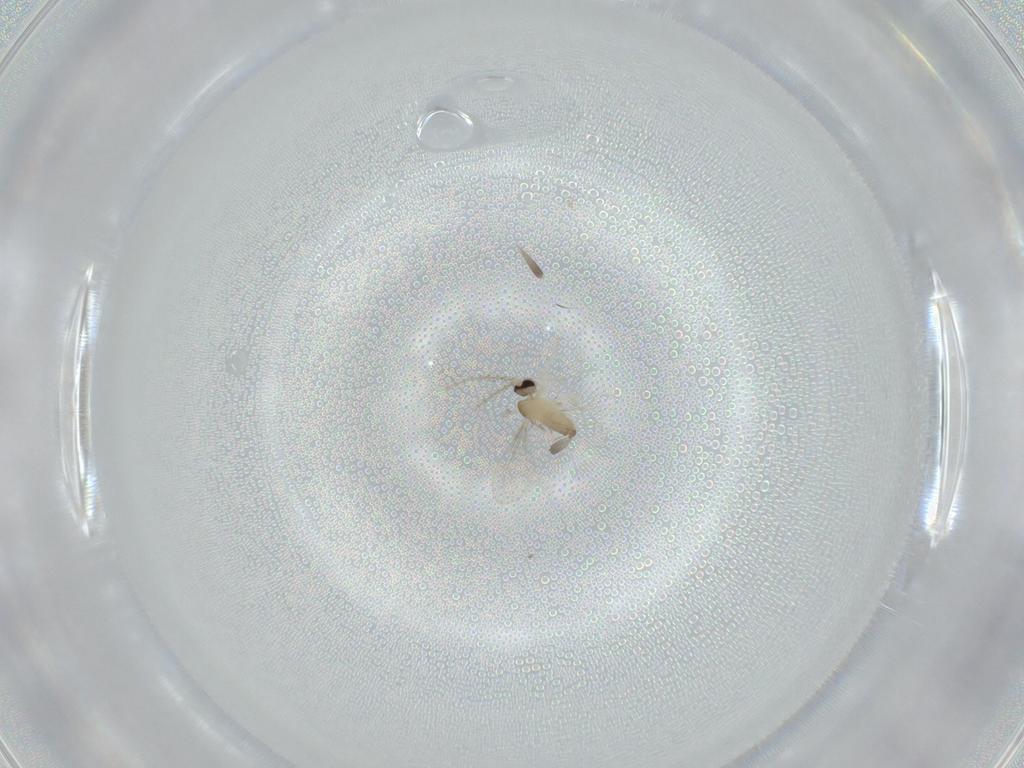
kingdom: Animalia
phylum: Arthropoda
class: Insecta
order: Diptera
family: Cecidomyiidae
